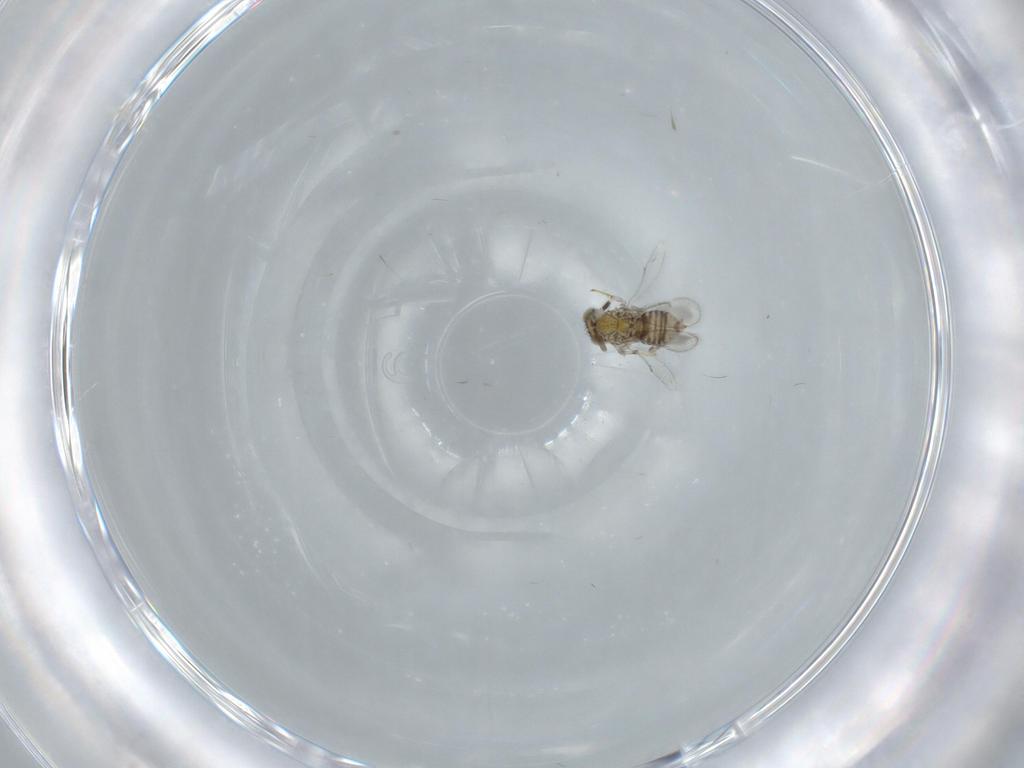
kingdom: Animalia
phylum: Arthropoda
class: Insecta
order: Hymenoptera
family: Aphelinidae
